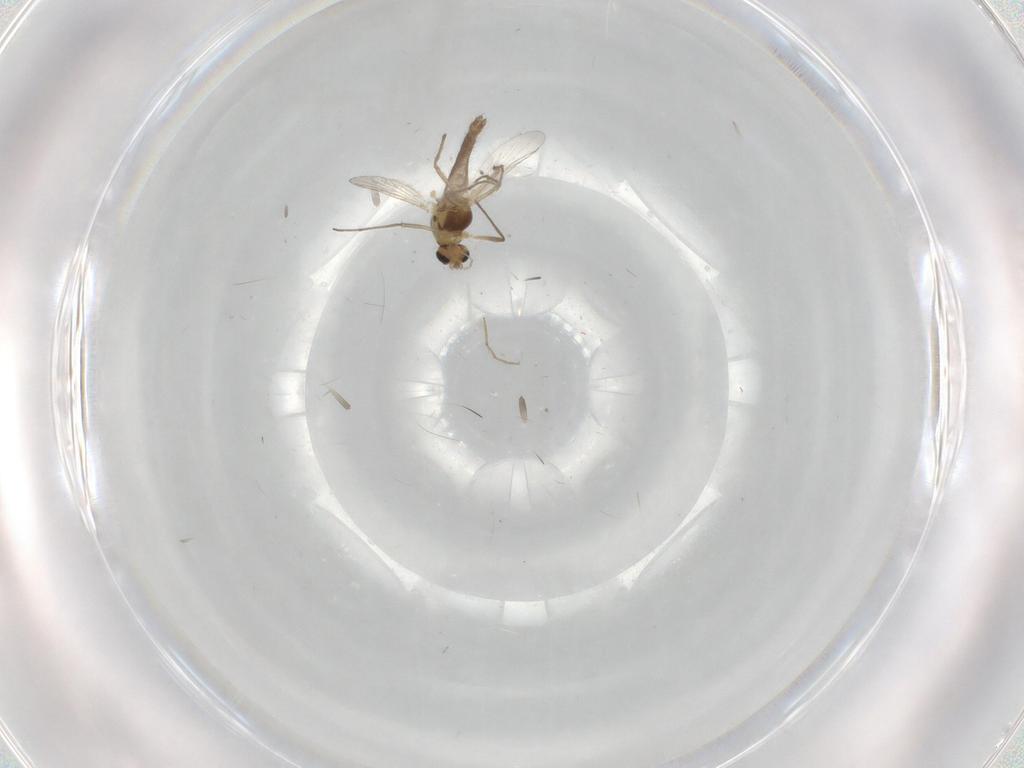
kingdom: Animalia
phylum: Arthropoda
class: Insecta
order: Diptera
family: Chironomidae
